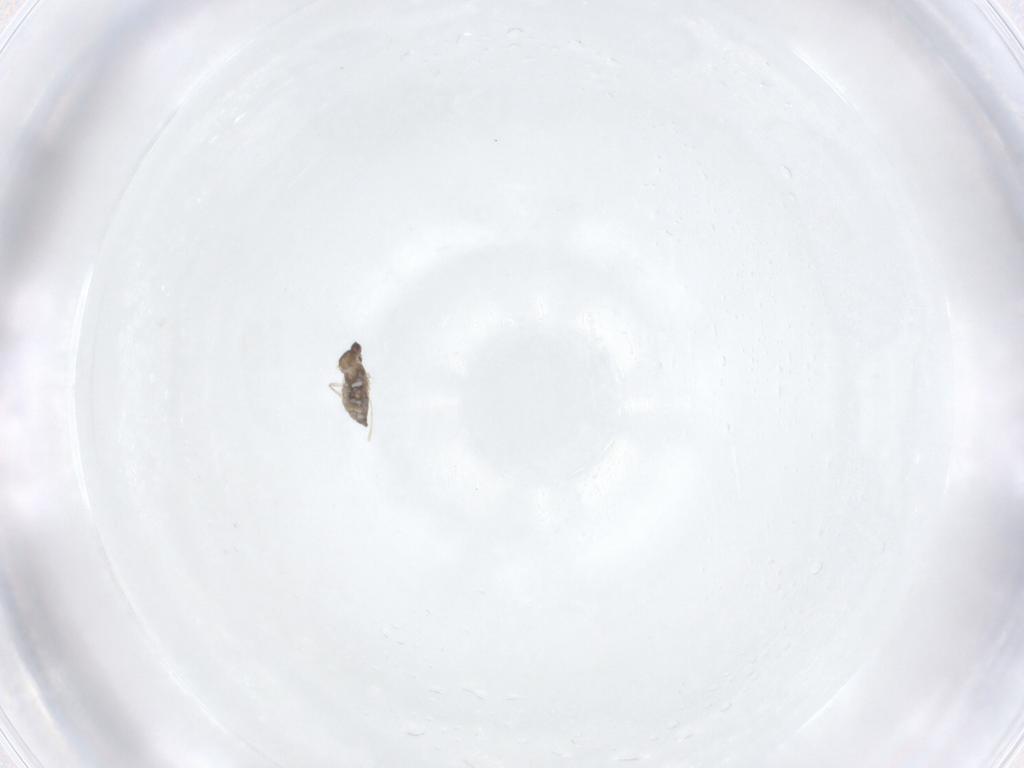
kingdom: Animalia
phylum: Arthropoda
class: Insecta
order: Diptera
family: Cecidomyiidae
